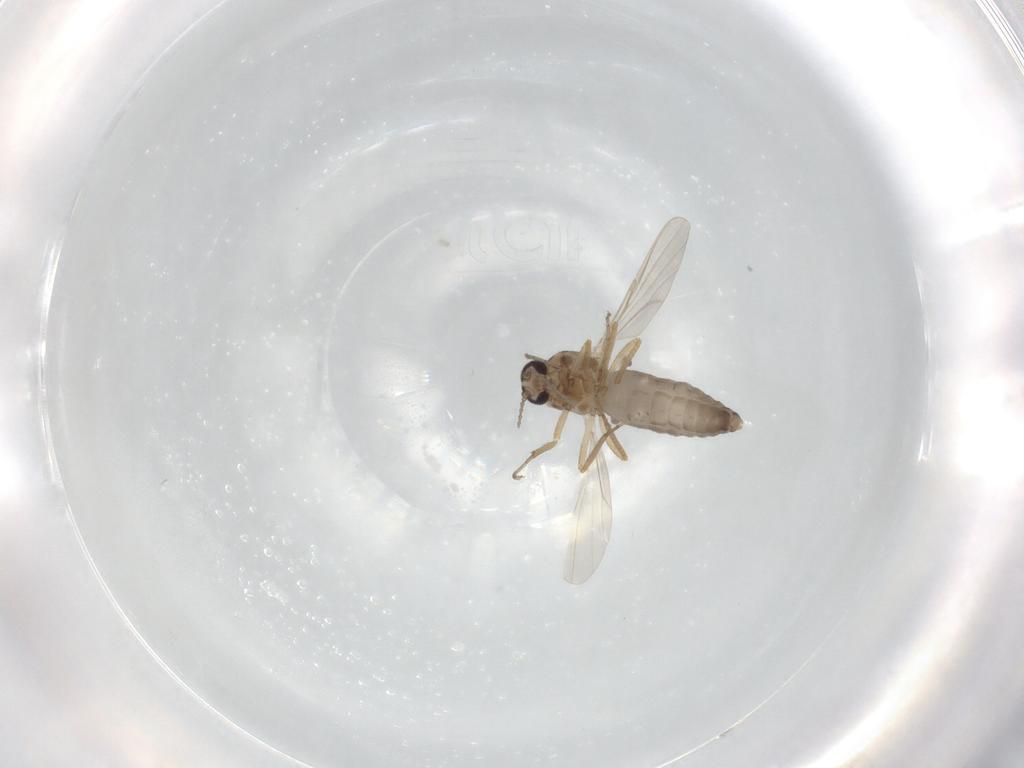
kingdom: Animalia
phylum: Arthropoda
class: Insecta
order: Diptera
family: Ceratopogonidae
